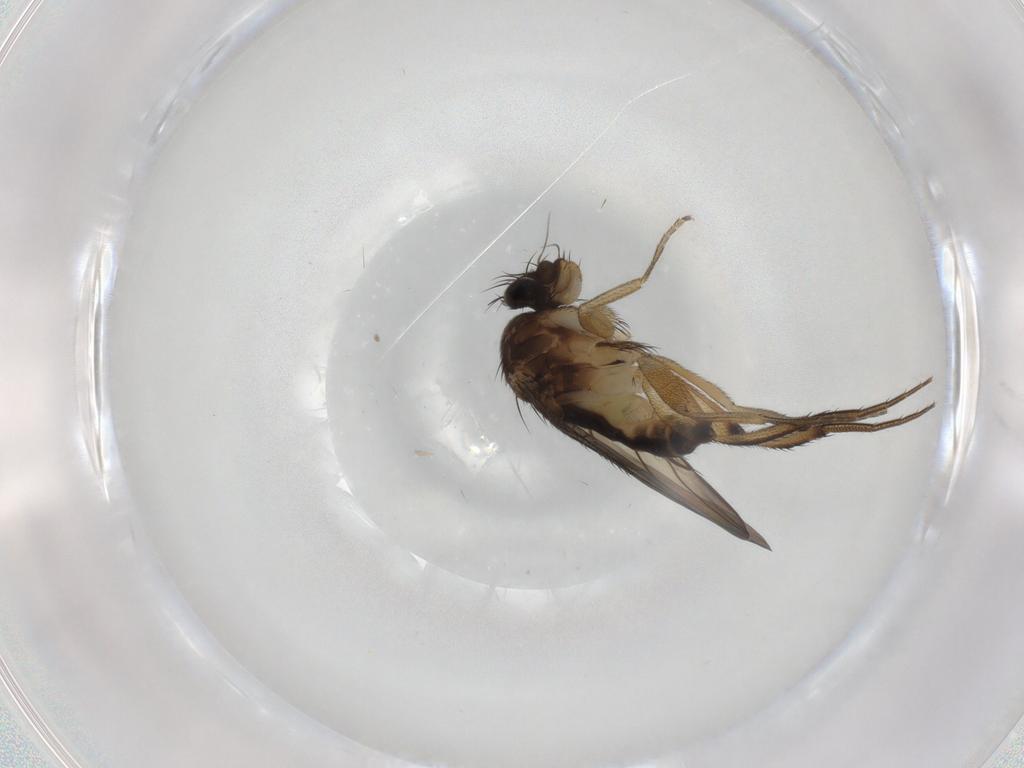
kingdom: Animalia
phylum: Arthropoda
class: Insecta
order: Diptera
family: Phoridae
